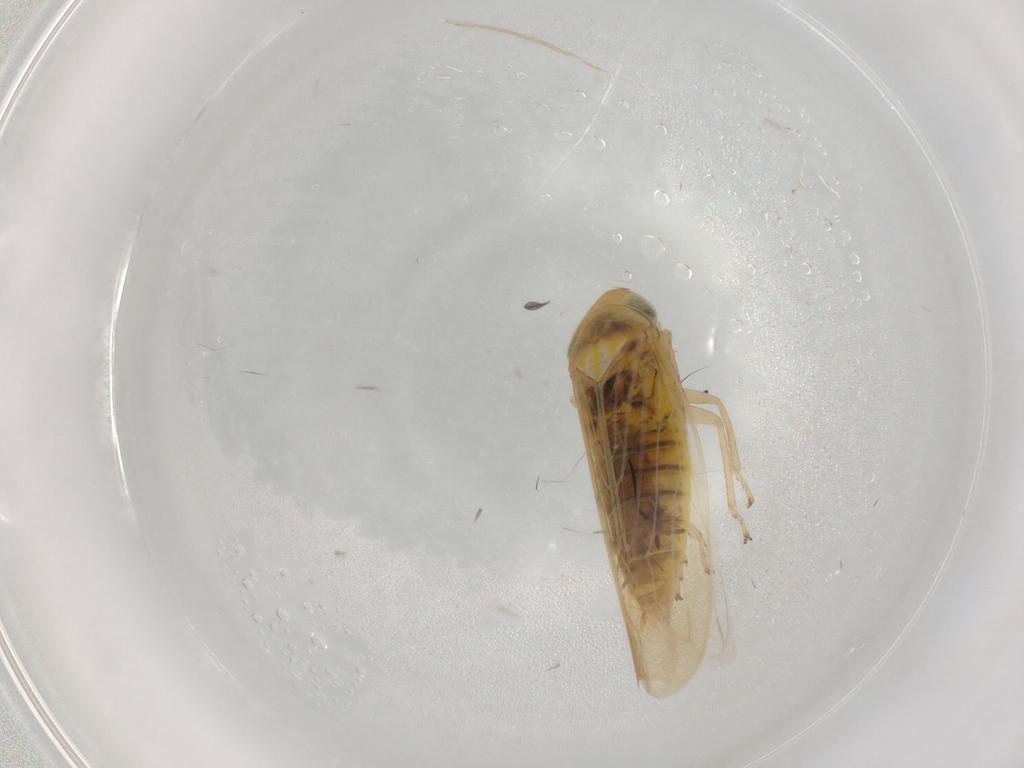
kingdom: Animalia
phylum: Arthropoda
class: Insecta
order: Hemiptera
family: Cicadellidae
